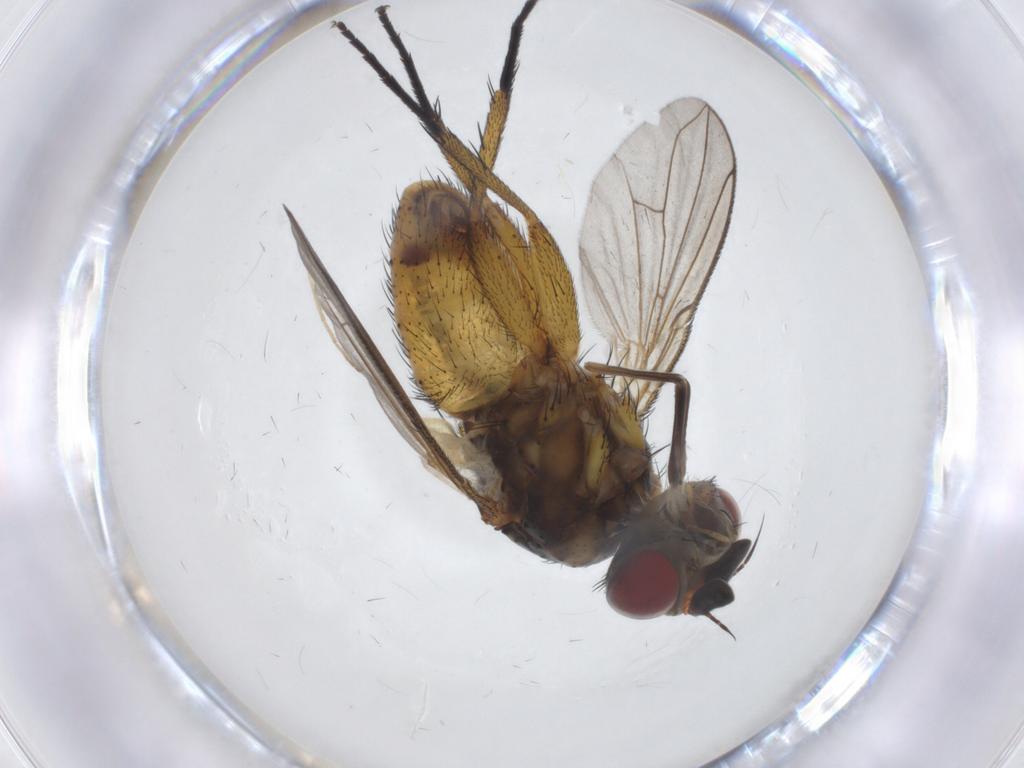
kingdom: Animalia
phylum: Arthropoda
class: Insecta
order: Diptera
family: Tachinidae
